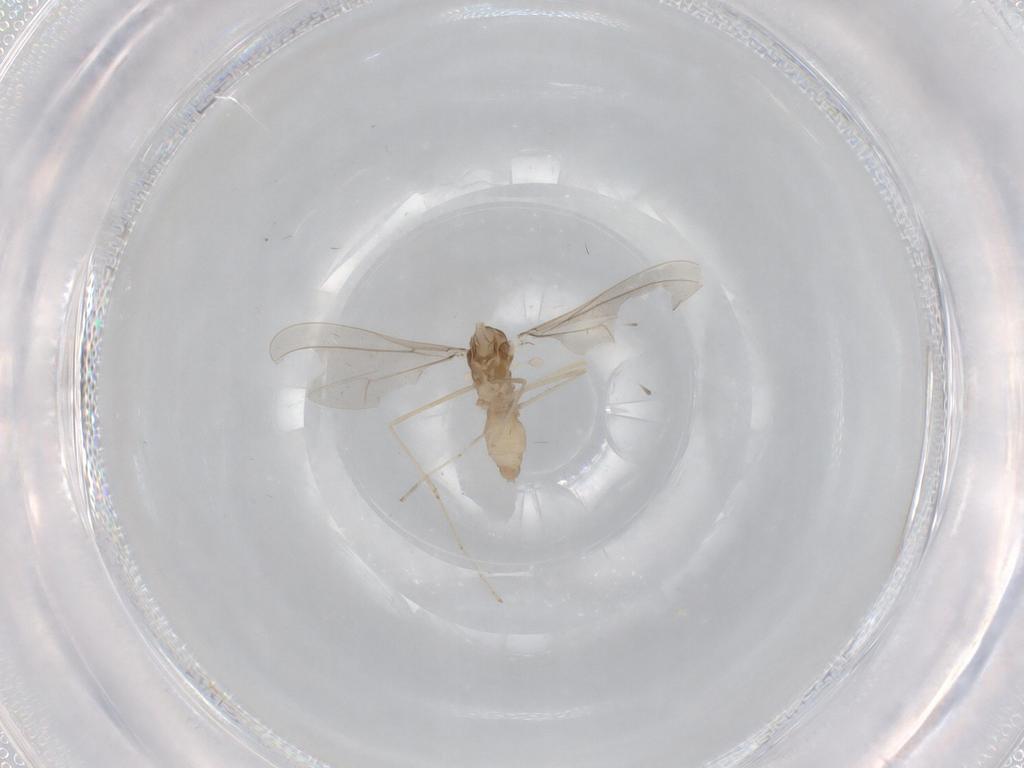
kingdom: Animalia
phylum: Arthropoda
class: Insecta
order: Diptera
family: Cecidomyiidae
